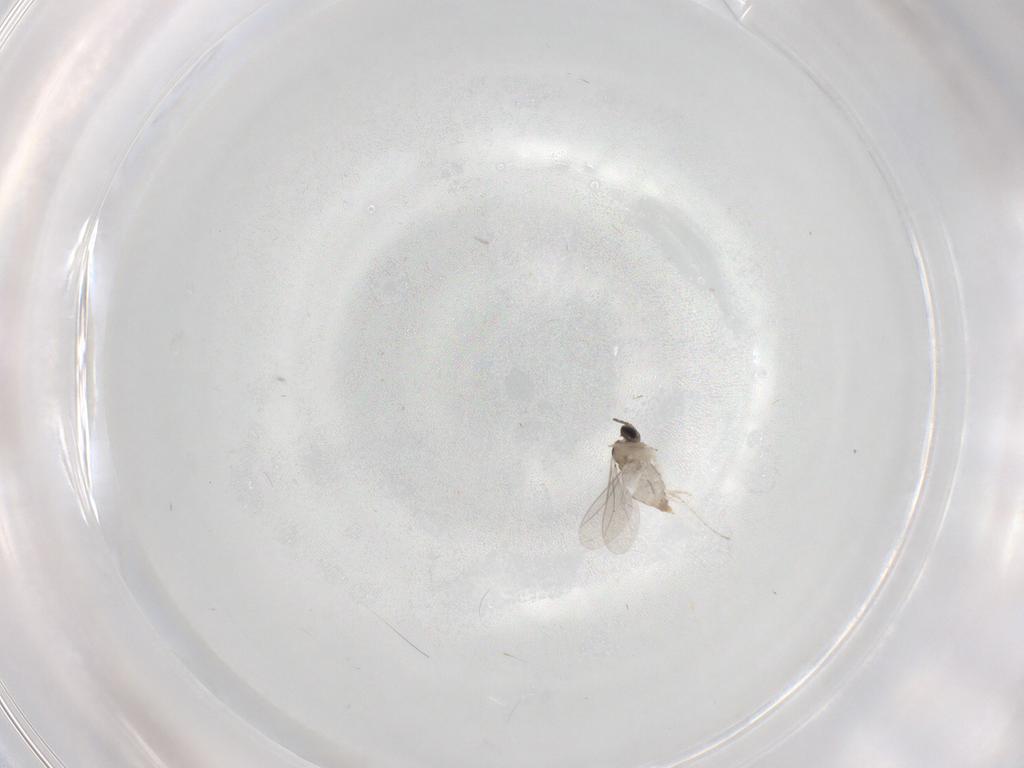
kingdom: Animalia
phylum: Arthropoda
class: Insecta
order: Diptera
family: Cecidomyiidae
